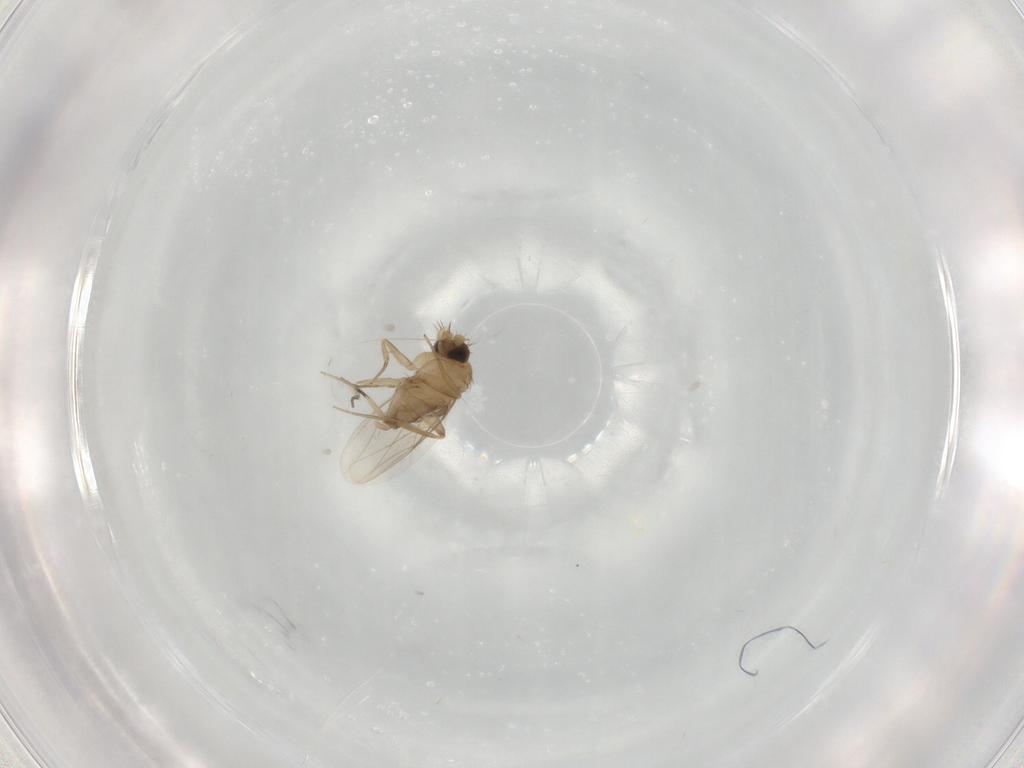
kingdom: Animalia
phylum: Arthropoda
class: Insecta
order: Diptera
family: Phoridae
